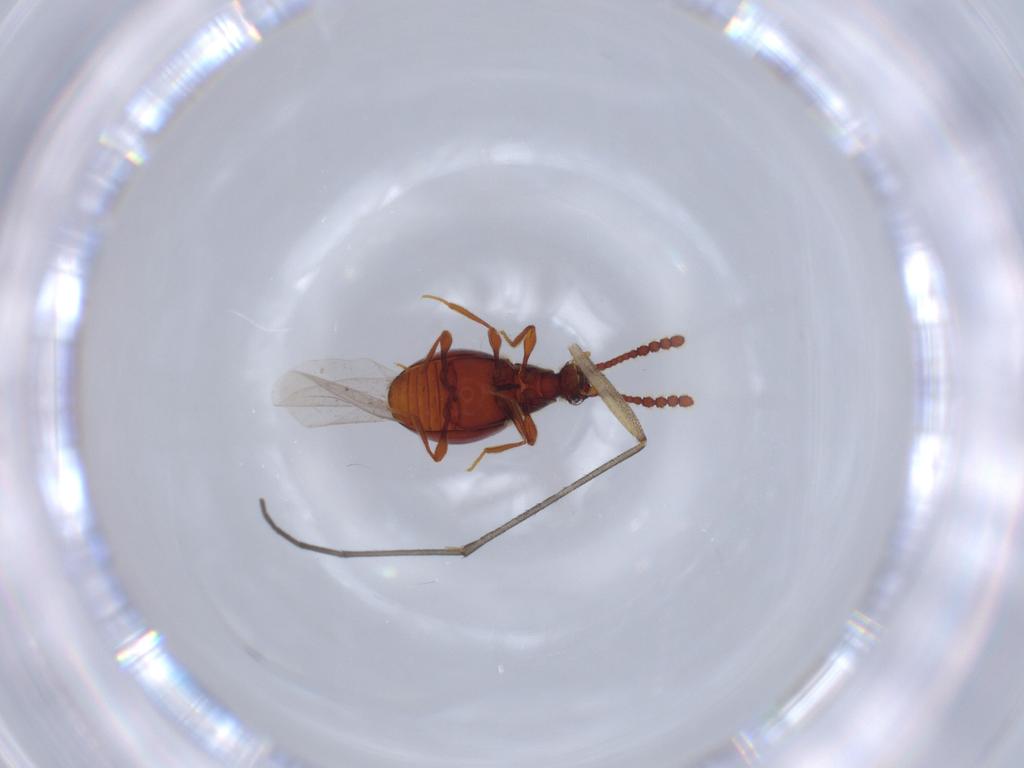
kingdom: Animalia
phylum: Arthropoda
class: Insecta
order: Coleoptera
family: Staphylinidae
